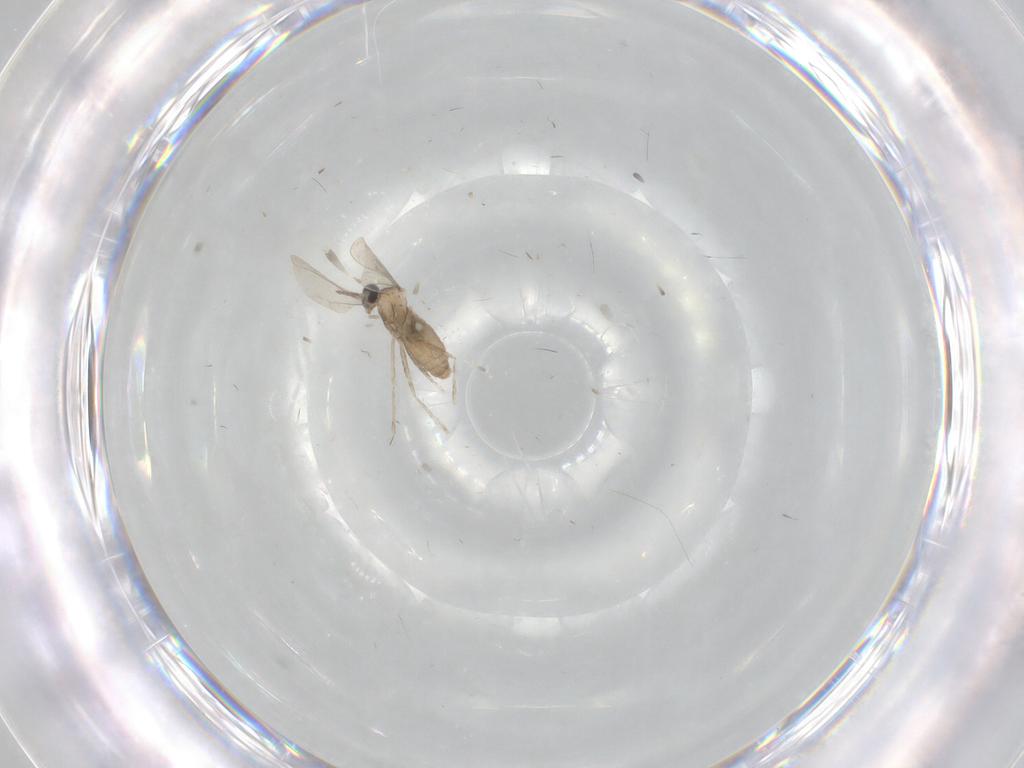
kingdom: Animalia
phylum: Arthropoda
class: Insecta
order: Diptera
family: Cecidomyiidae
